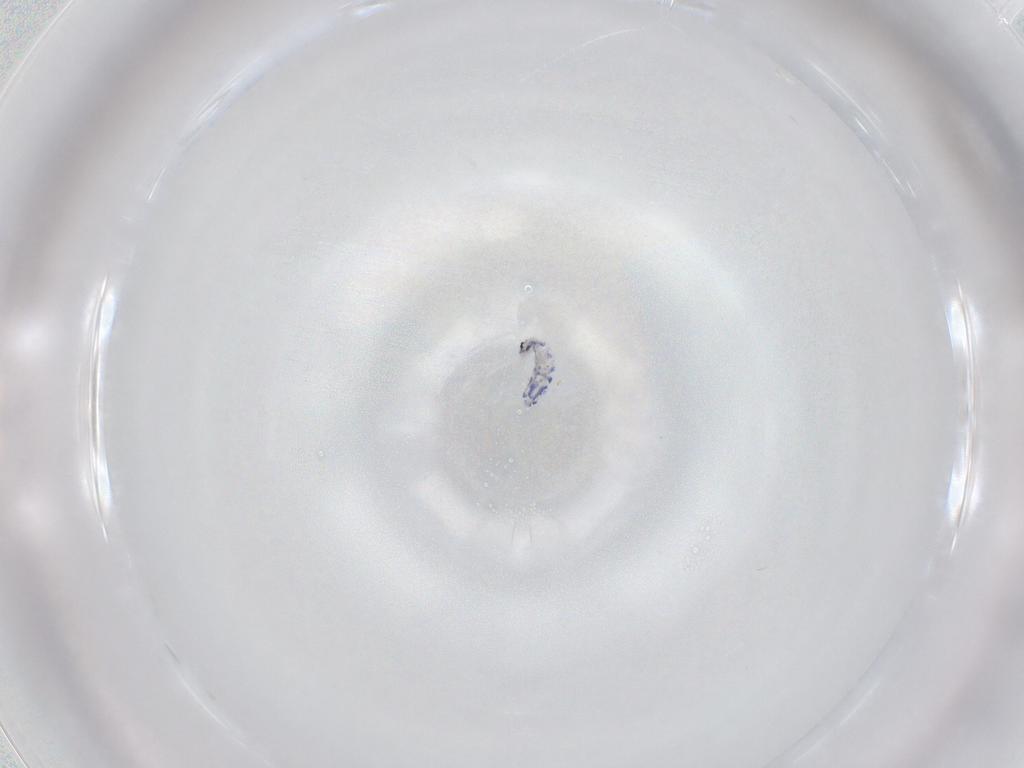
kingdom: Animalia
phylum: Arthropoda
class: Collembola
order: Entomobryomorpha
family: Entomobryidae
